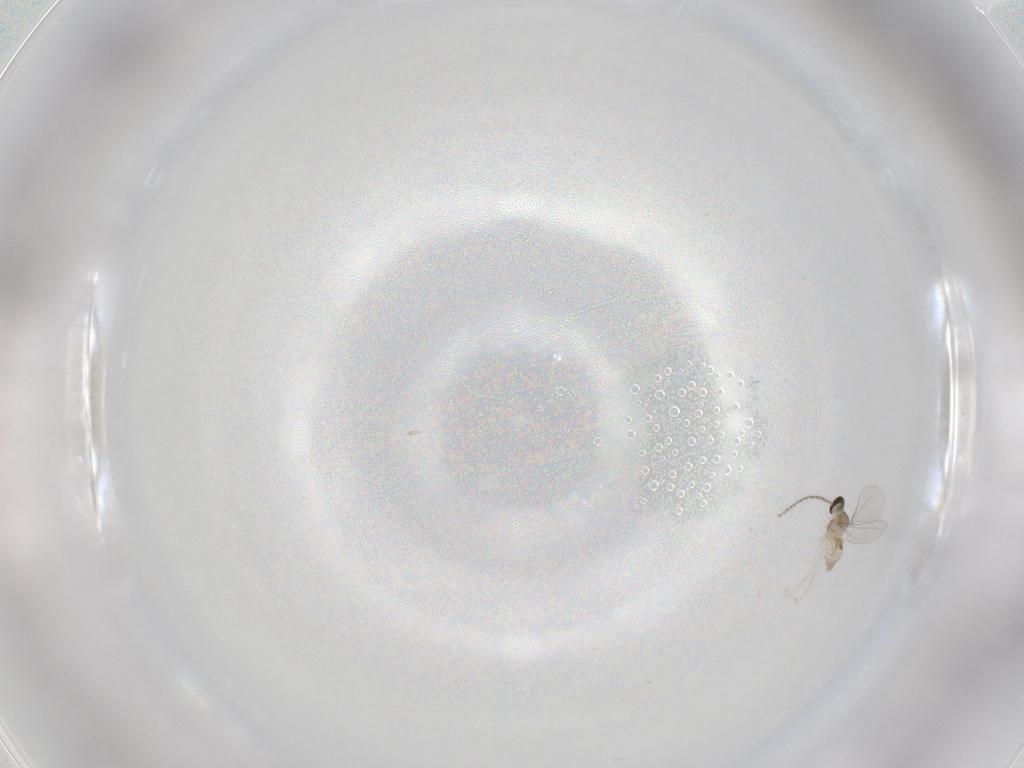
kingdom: Animalia
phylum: Arthropoda
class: Insecta
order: Diptera
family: Cecidomyiidae
